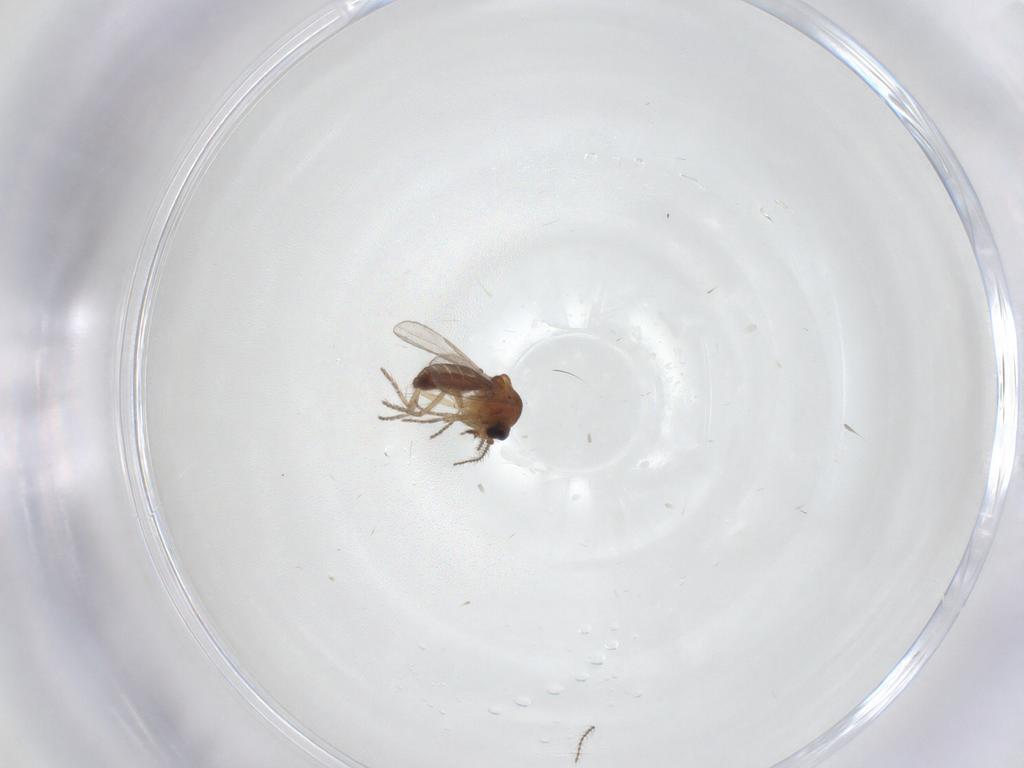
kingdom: Animalia
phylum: Arthropoda
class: Insecta
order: Diptera
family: Ceratopogonidae
